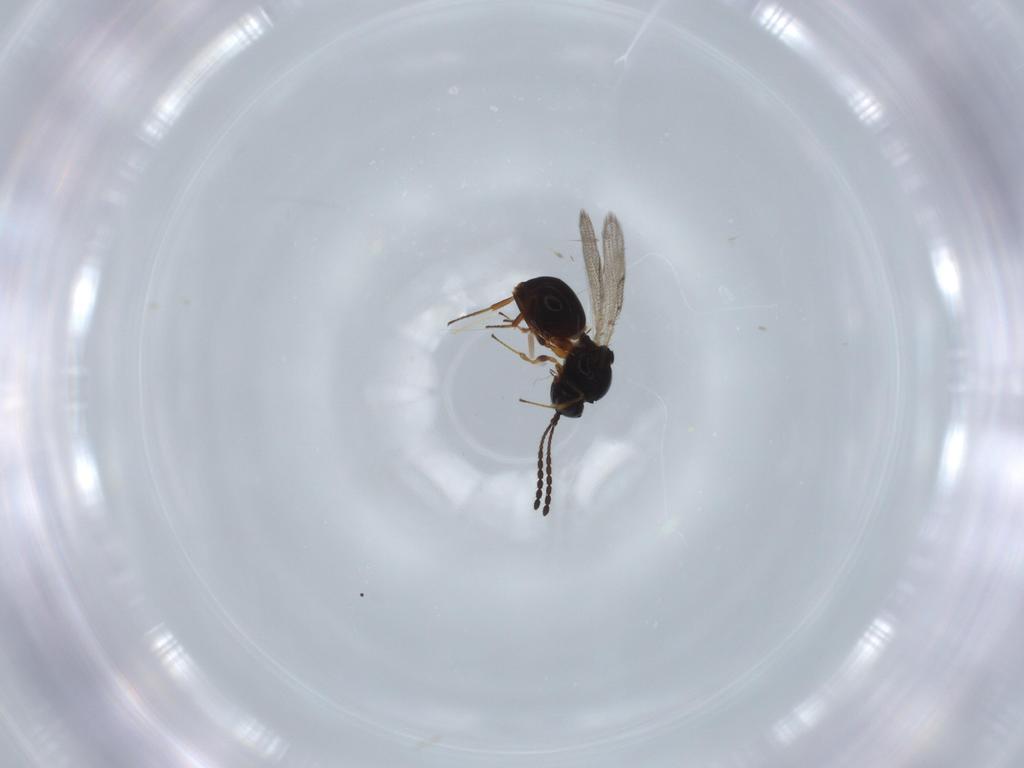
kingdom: Animalia
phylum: Arthropoda
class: Insecta
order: Hymenoptera
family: Figitidae
